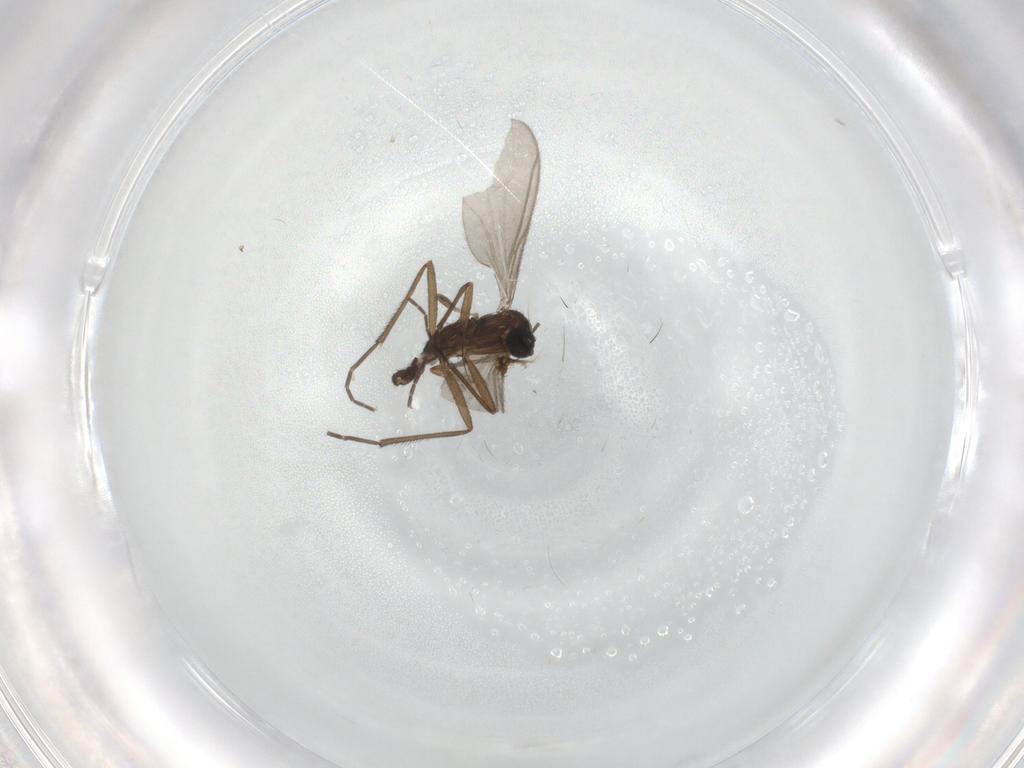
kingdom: Animalia
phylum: Arthropoda
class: Insecta
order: Diptera
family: Sciaridae
